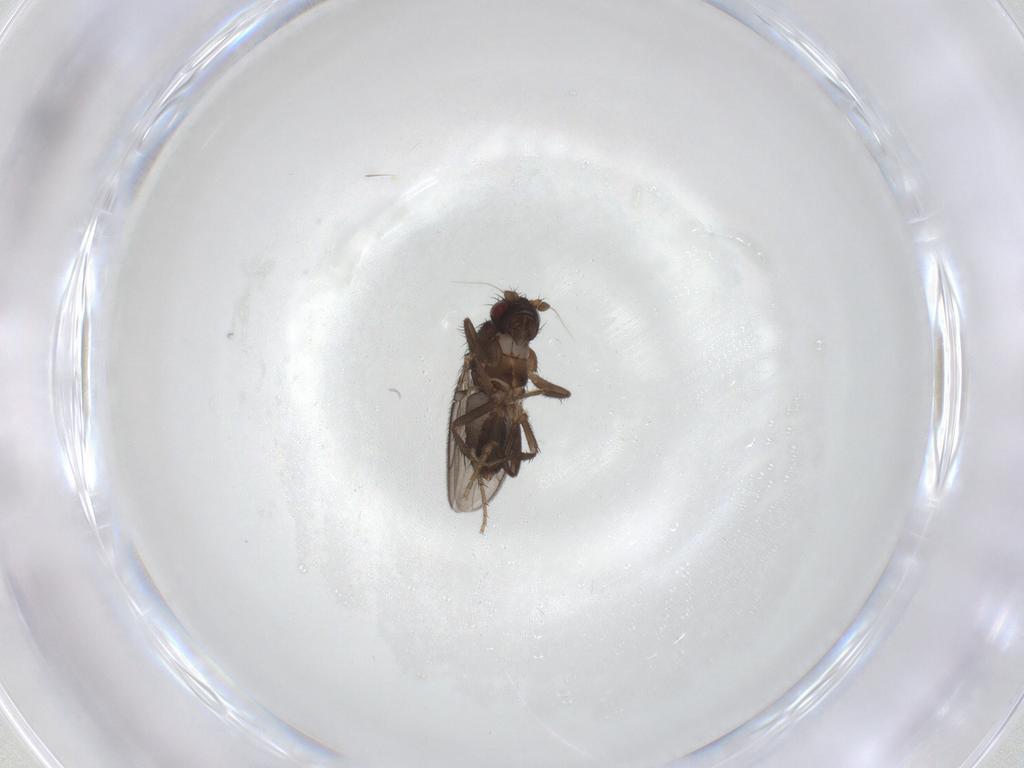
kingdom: Animalia
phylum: Arthropoda
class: Insecta
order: Diptera
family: Sphaeroceridae
